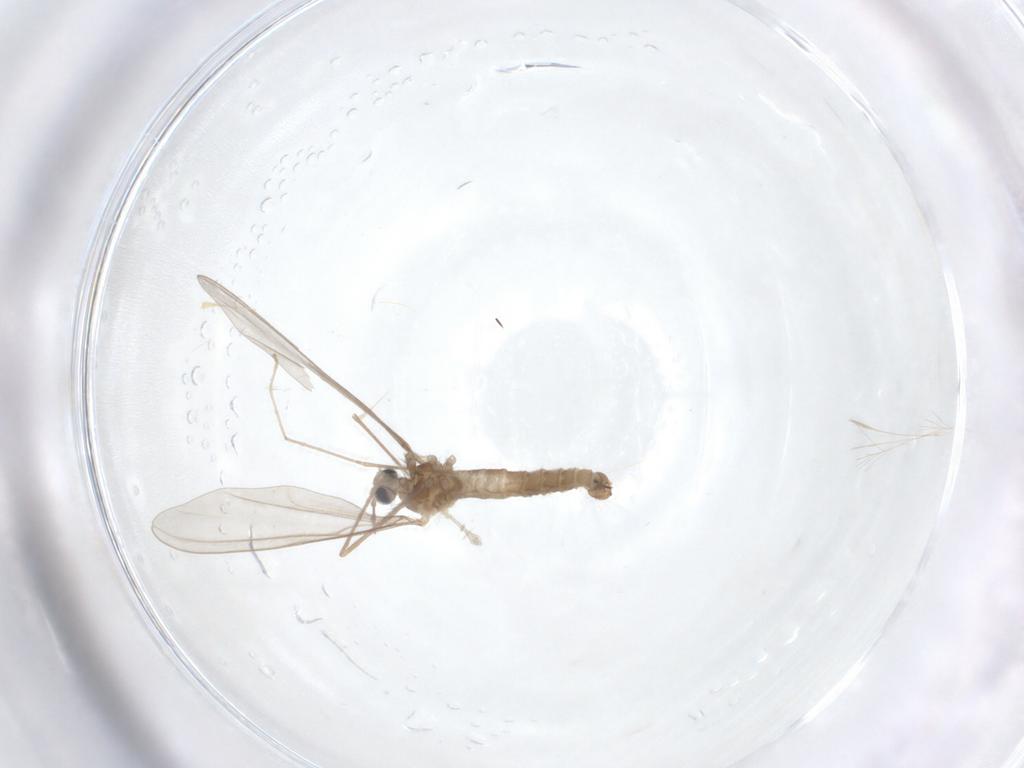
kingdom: Animalia
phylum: Arthropoda
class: Insecta
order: Diptera
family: Cecidomyiidae
